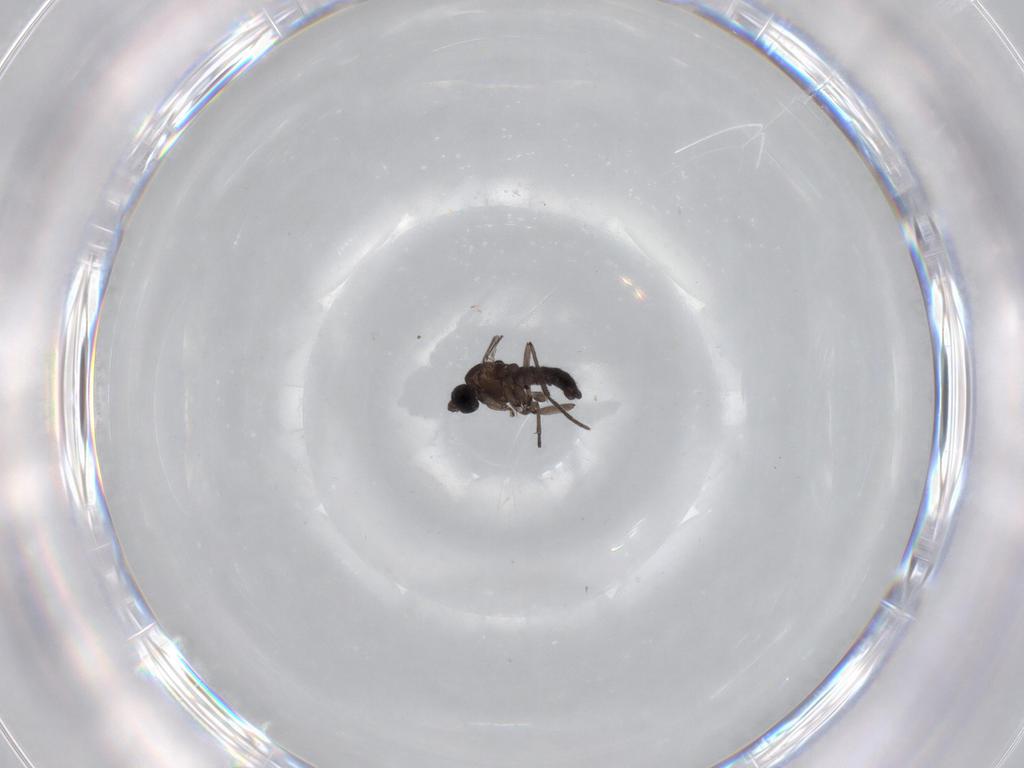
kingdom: Animalia
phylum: Arthropoda
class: Insecta
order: Diptera
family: Sciaridae
